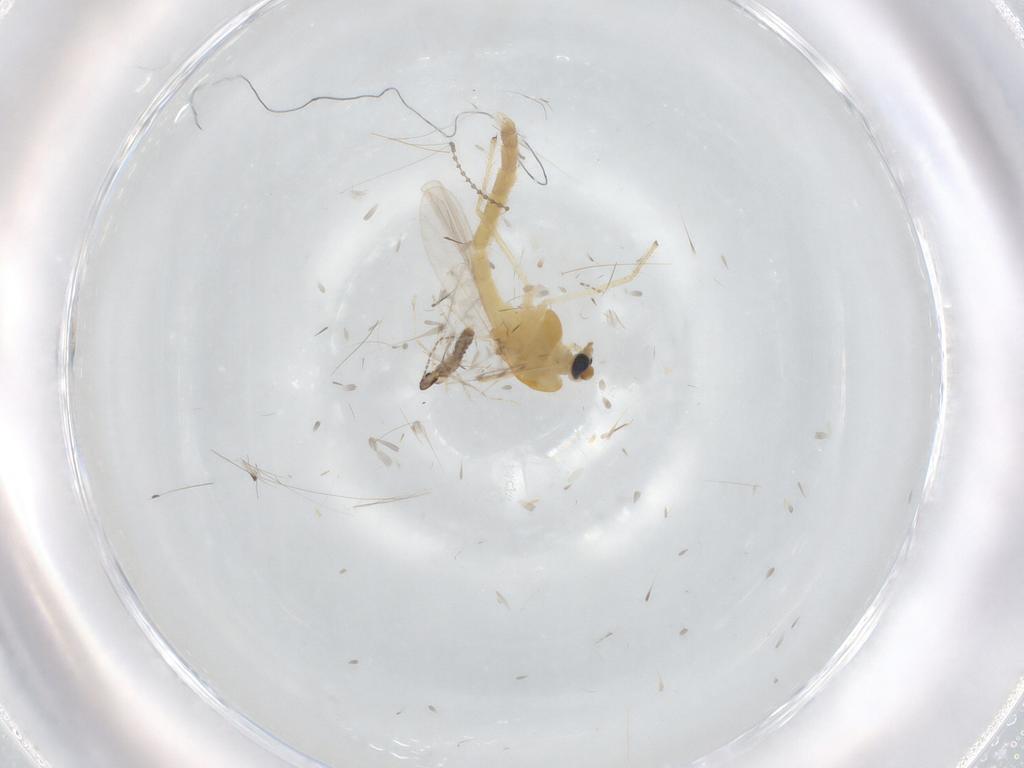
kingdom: Animalia
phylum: Arthropoda
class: Insecta
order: Diptera
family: Chironomidae
